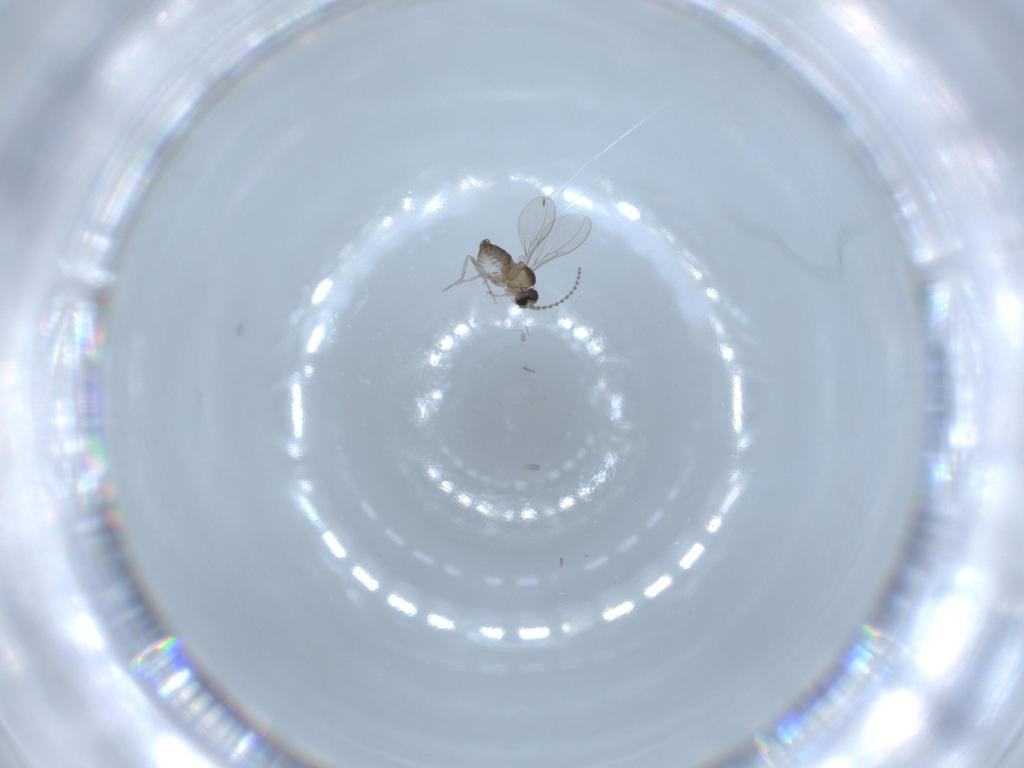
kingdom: Animalia
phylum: Arthropoda
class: Insecta
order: Diptera
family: Cecidomyiidae
